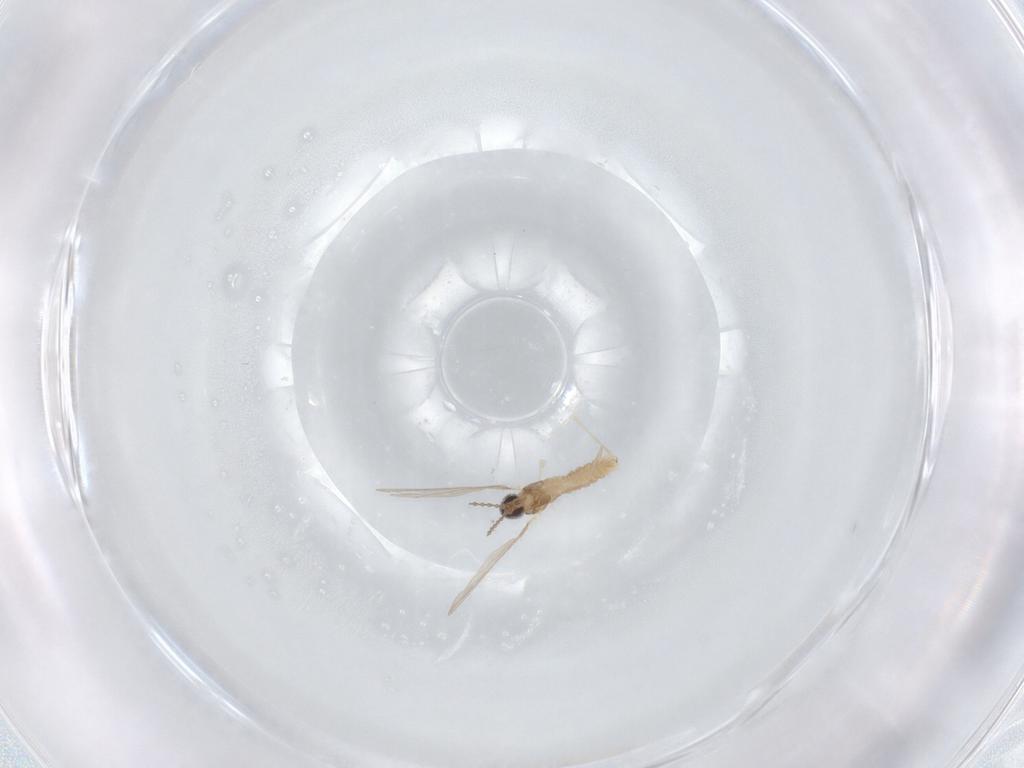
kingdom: Animalia
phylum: Arthropoda
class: Insecta
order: Diptera
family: Cecidomyiidae
